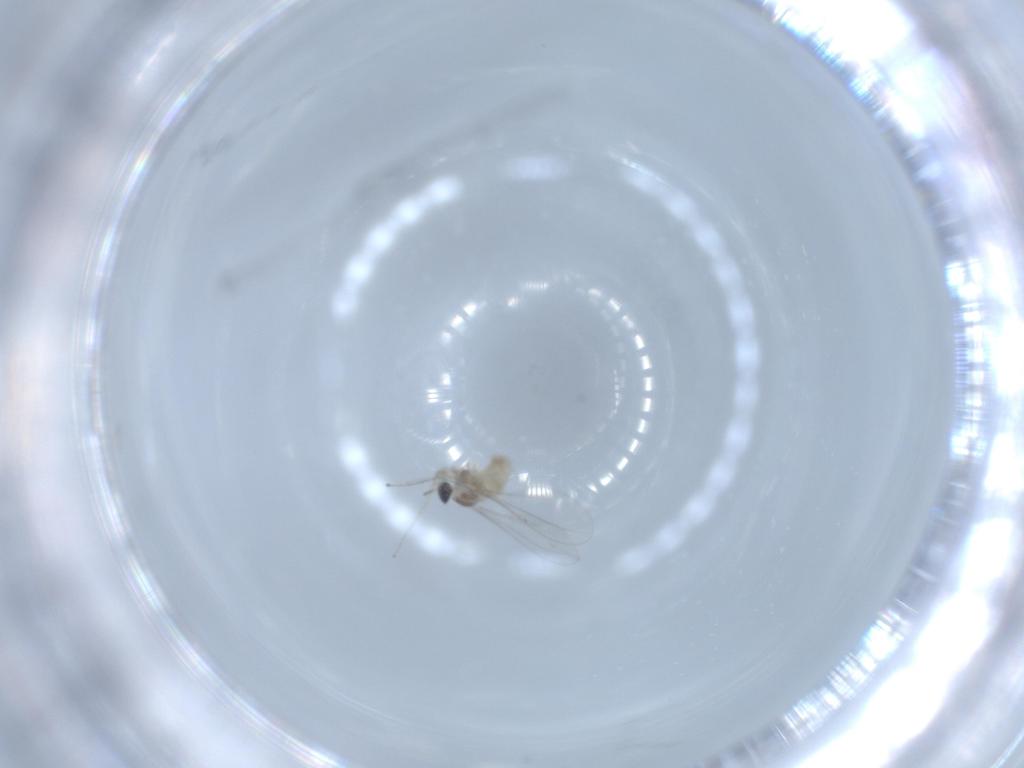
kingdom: Animalia
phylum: Arthropoda
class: Insecta
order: Diptera
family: Cecidomyiidae
